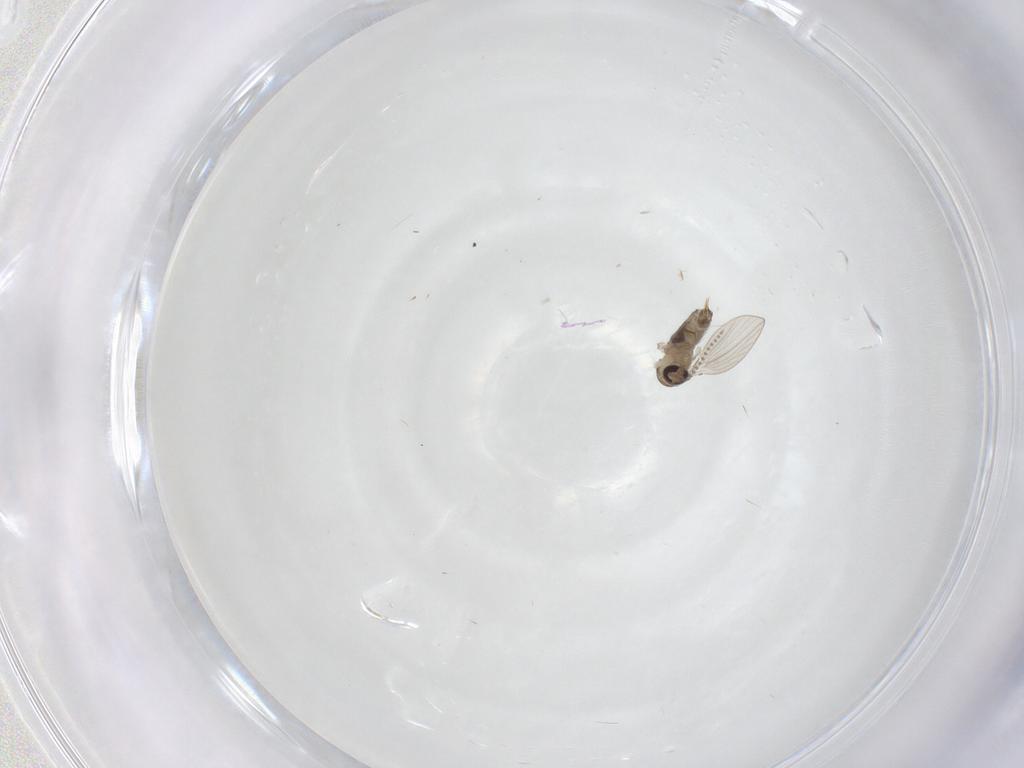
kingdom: Animalia
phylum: Arthropoda
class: Insecta
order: Diptera
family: Psychodidae
